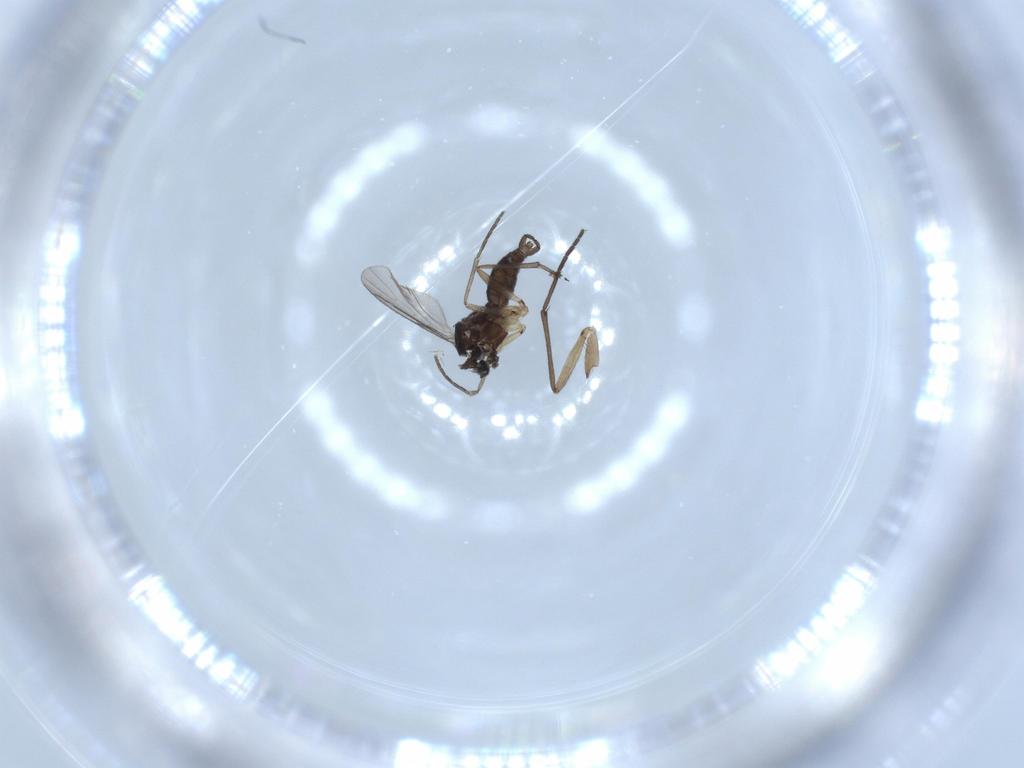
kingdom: Animalia
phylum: Arthropoda
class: Insecta
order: Diptera
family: Sciaridae
